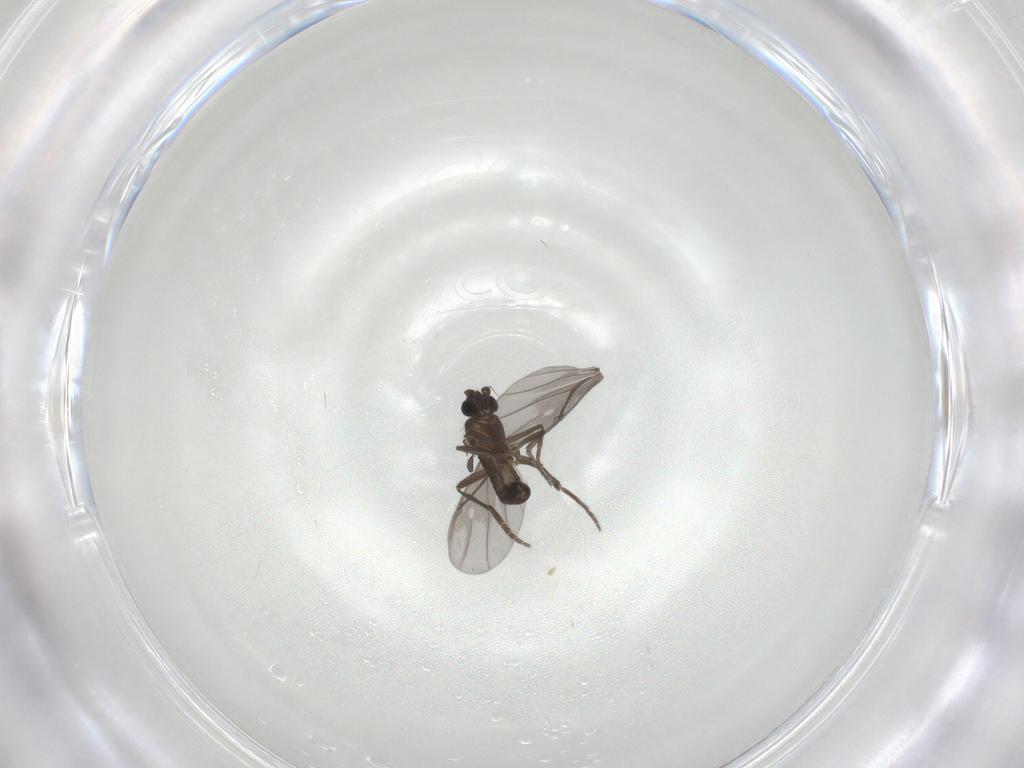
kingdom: Animalia
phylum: Arthropoda
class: Insecta
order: Diptera
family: Phoridae
